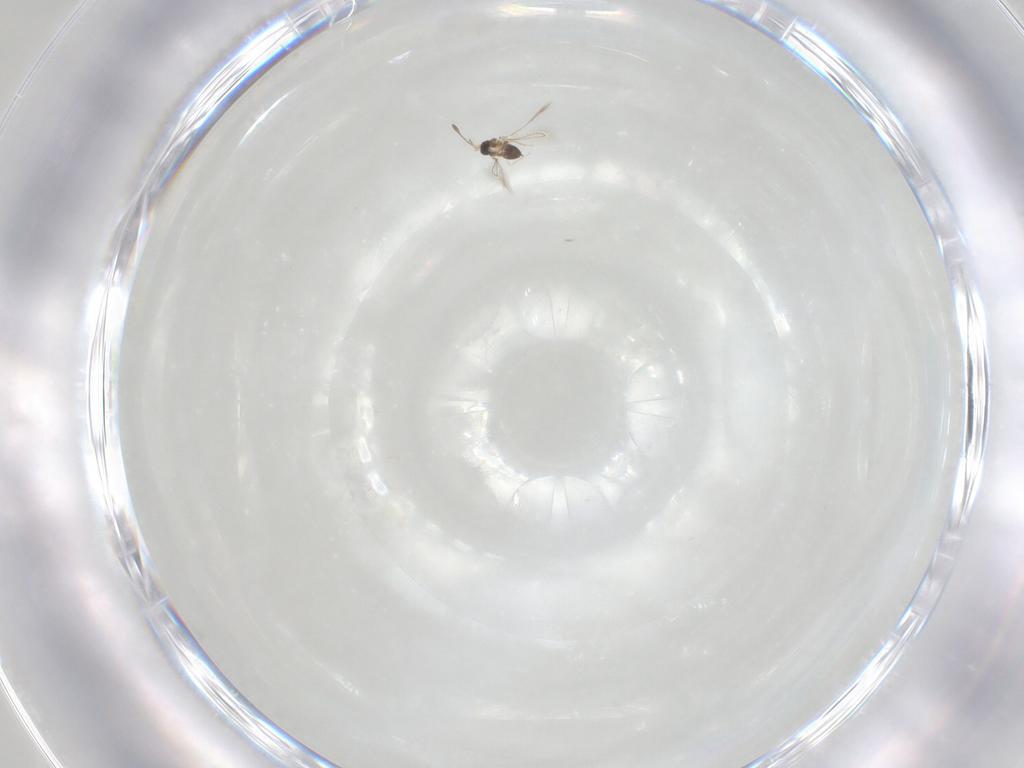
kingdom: Animalia
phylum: Arthropoda
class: Insecta
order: Hymenoptera
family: Mymaridae
